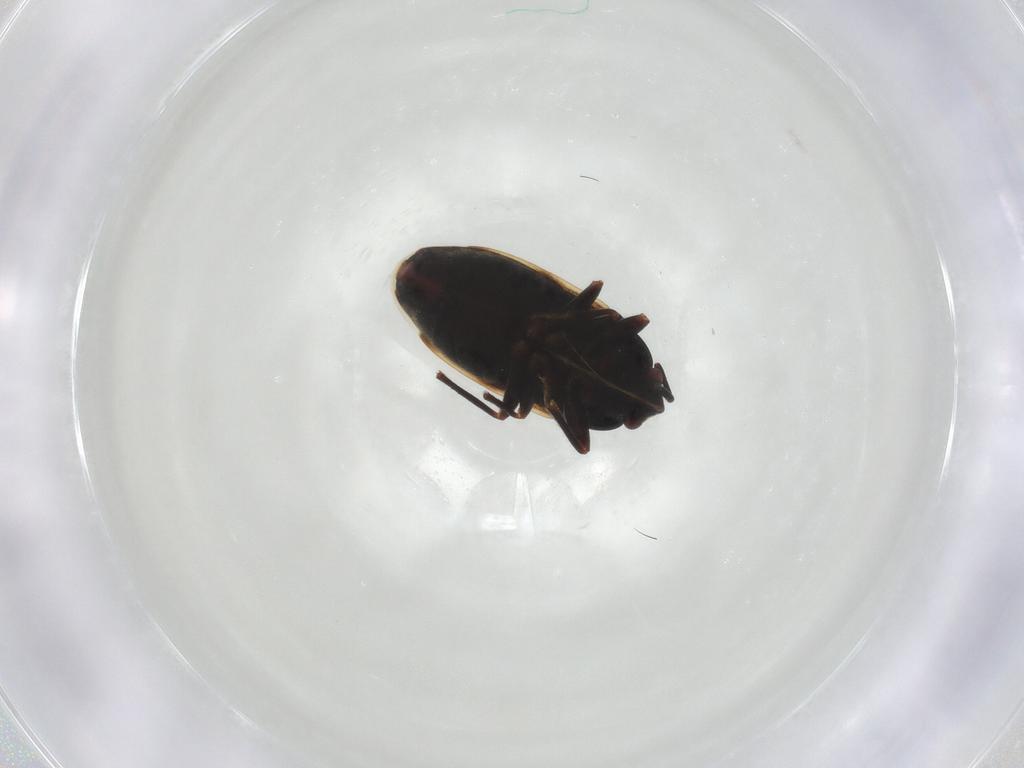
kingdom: Animalia
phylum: Arthropoda
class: Insecta
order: Hemiptera
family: Rhyparochromidae
